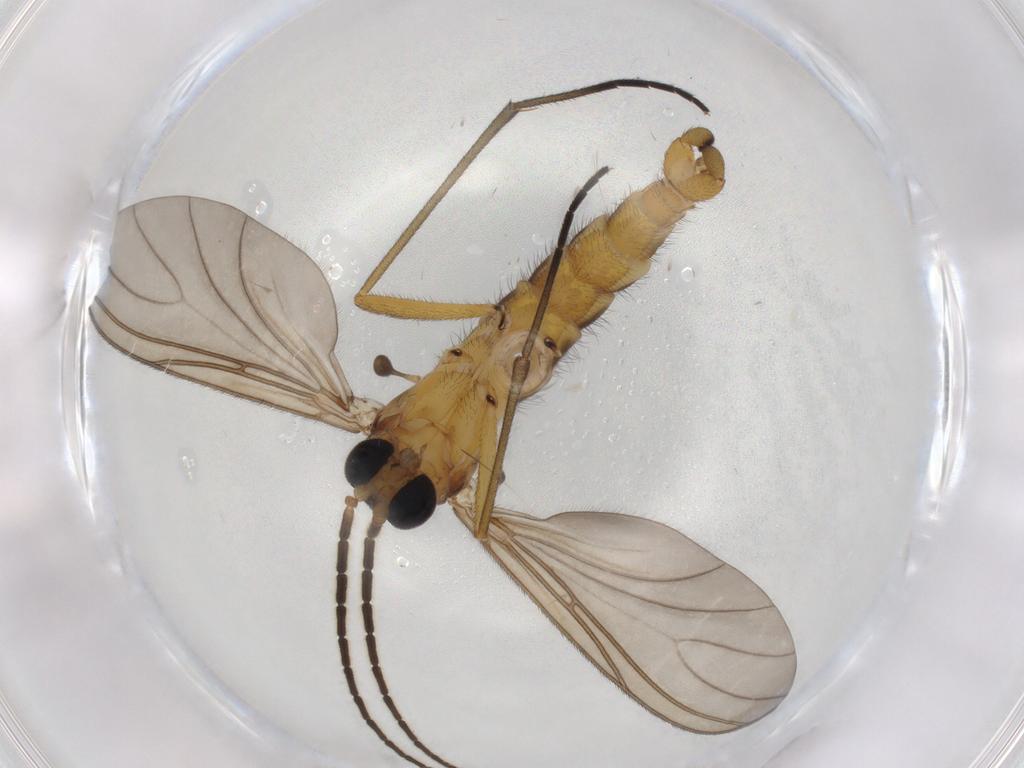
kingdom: Animalia
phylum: Arthropoda
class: Insecta
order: Diptera
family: Sciaridae
